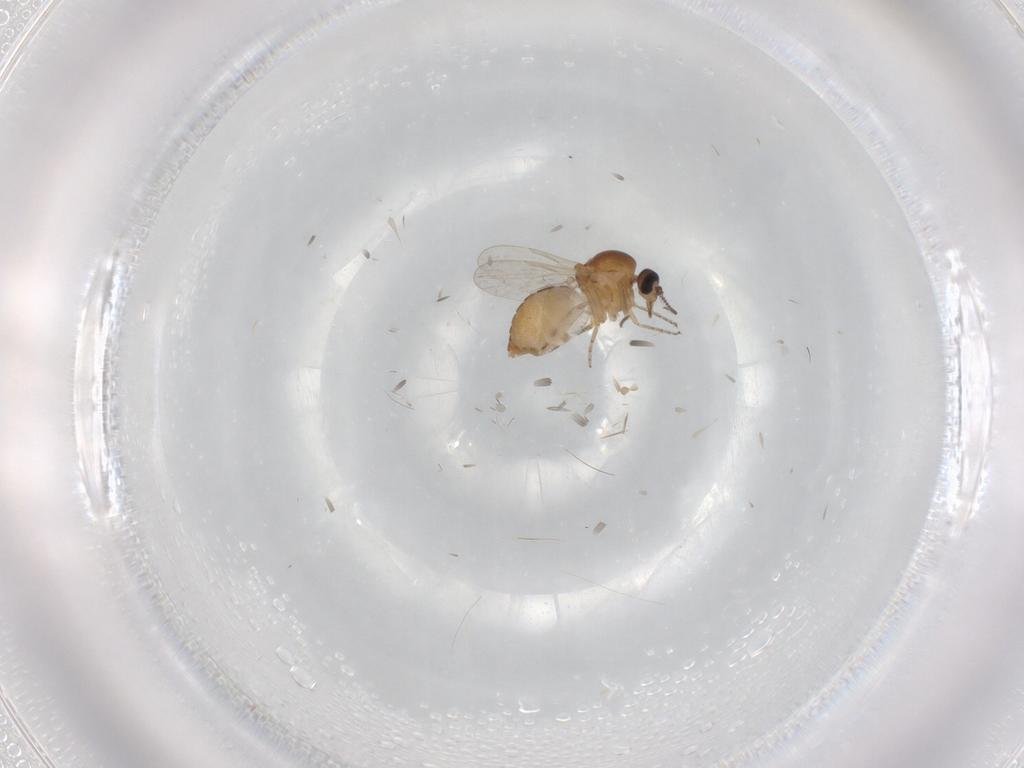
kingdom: Animalia
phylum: Arthropoda
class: Insecta
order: Diptera
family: Ceratopogonidae
